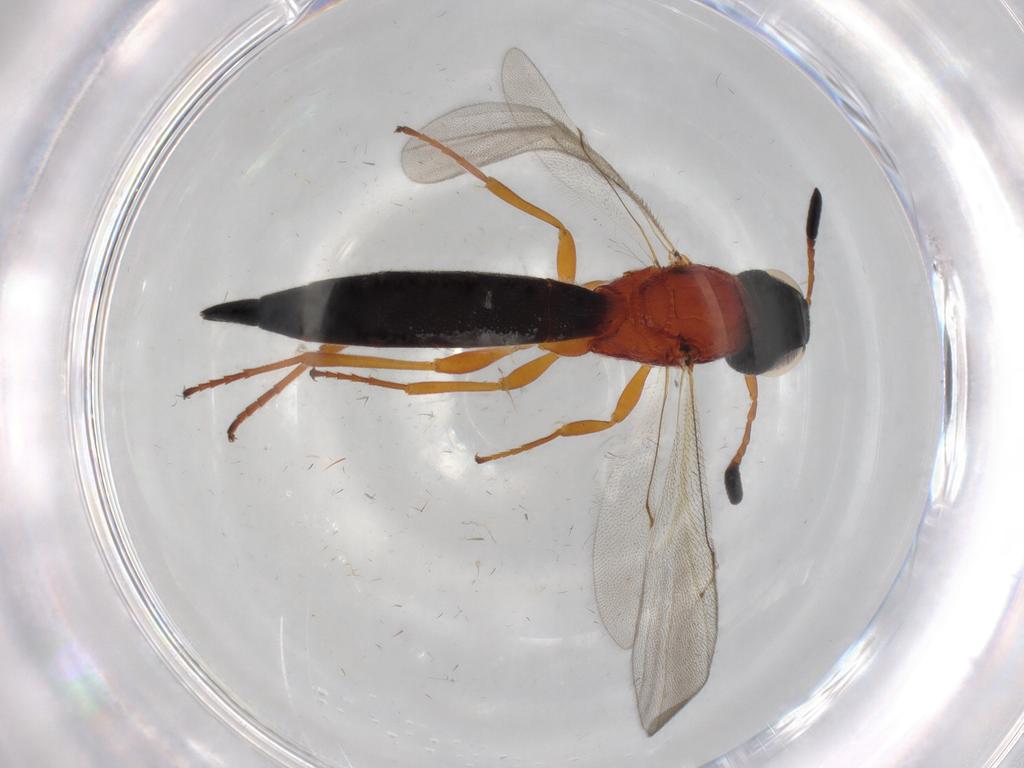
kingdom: Animalia
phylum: Arthropoda
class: Insecta
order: Hymenoptera
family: Scelionidae
